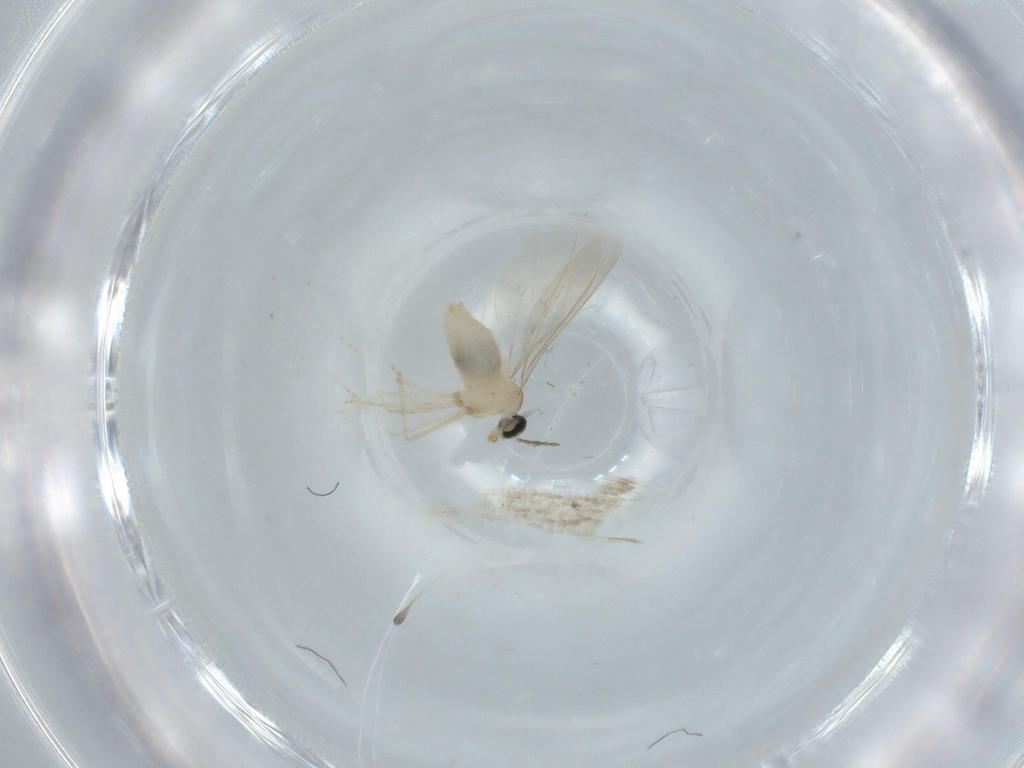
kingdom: Animalia
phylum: Arthropoda
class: Insecta
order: Diptera
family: Cecidomyiidae
